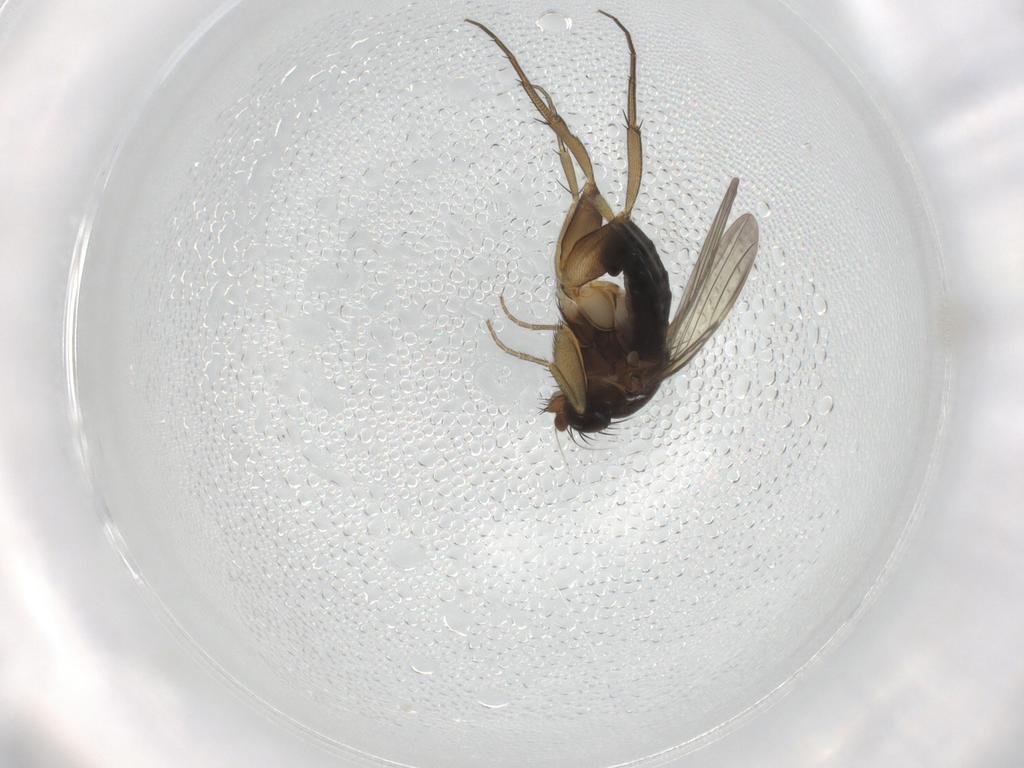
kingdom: Animalia
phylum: Arthropoda
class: Insecta
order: Diptera
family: Phoridae
